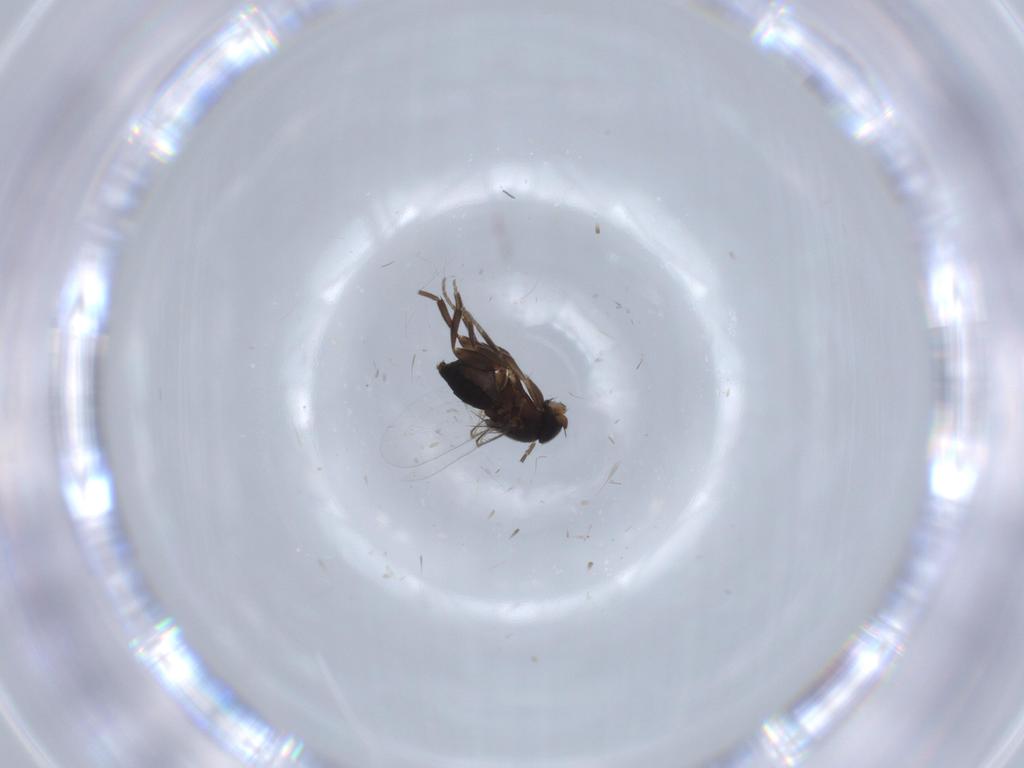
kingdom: Animalia
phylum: Arthropoda
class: Insecta
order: Diptera
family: Phoridae
